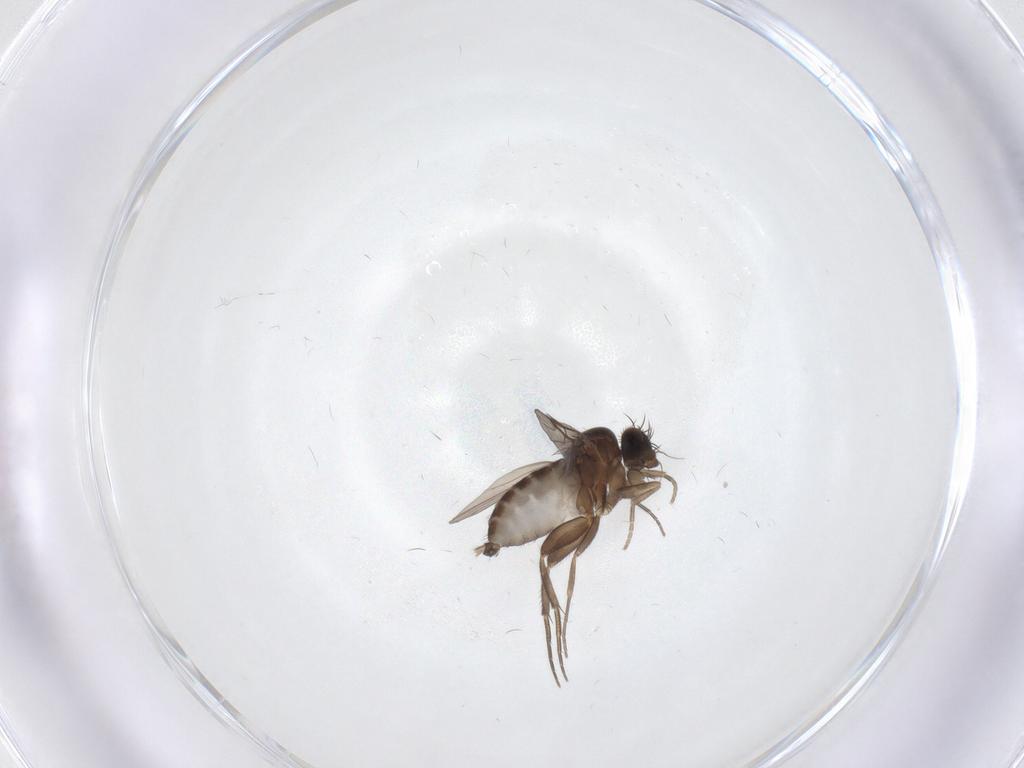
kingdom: Animalia
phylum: Arthropoda
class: Insecta
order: Diptera
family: Phoridae
